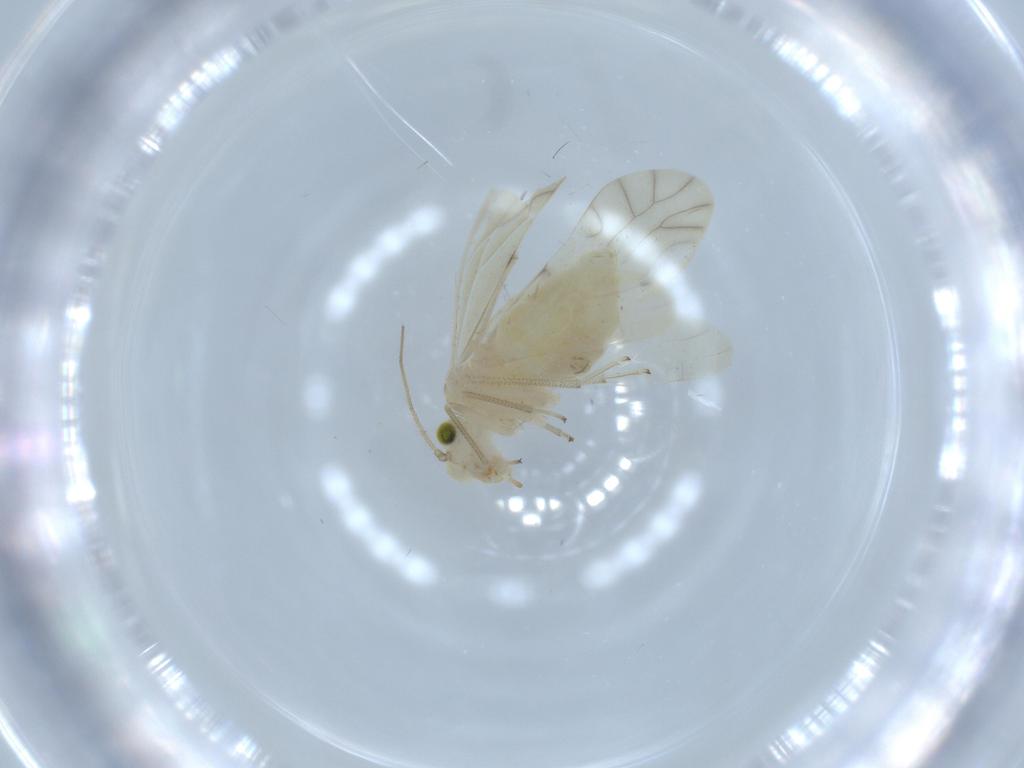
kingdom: Animalia
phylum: Arthropoda
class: Insecta
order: Psocodea
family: Caeciliusidae
